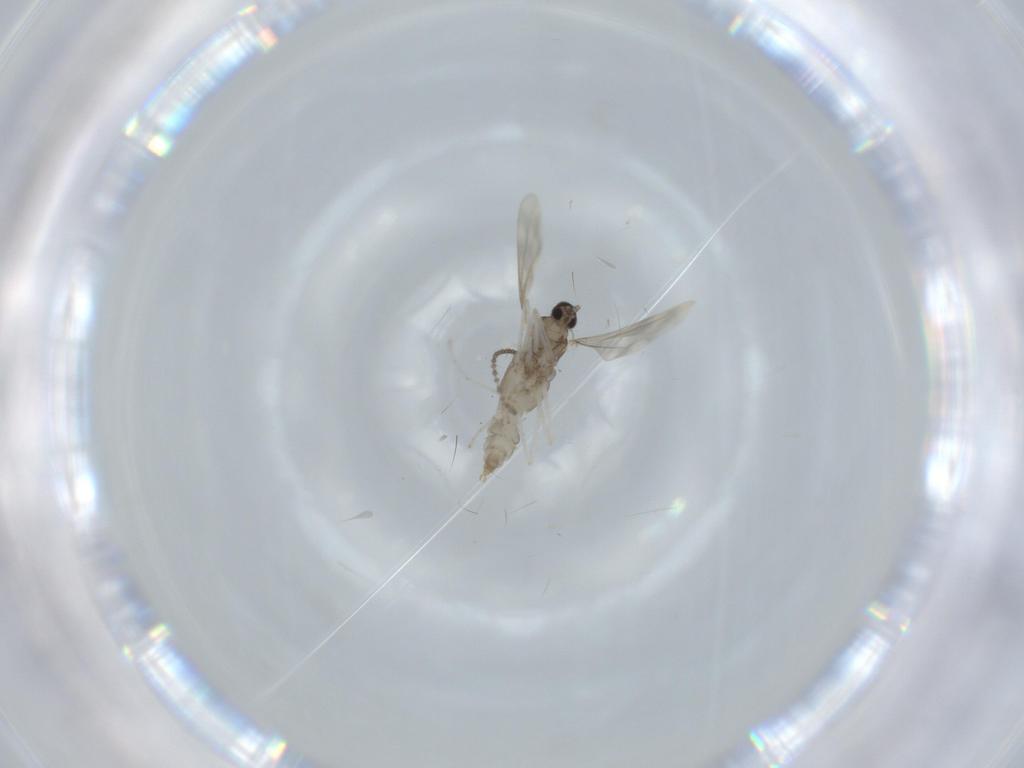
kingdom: Animalia
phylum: Arthropoda
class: Insecta
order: Diptera
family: Cecidomyiidae
